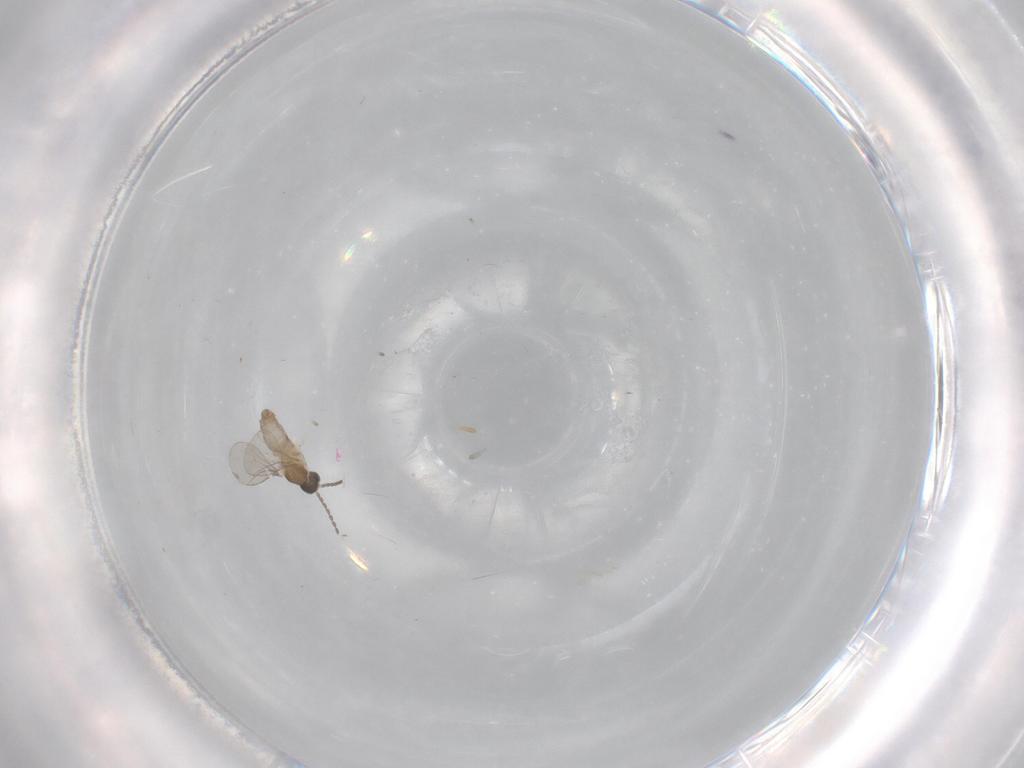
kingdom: Animalia
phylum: Arthropoda
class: Insecta
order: Diptera
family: Cecidomyiidae
